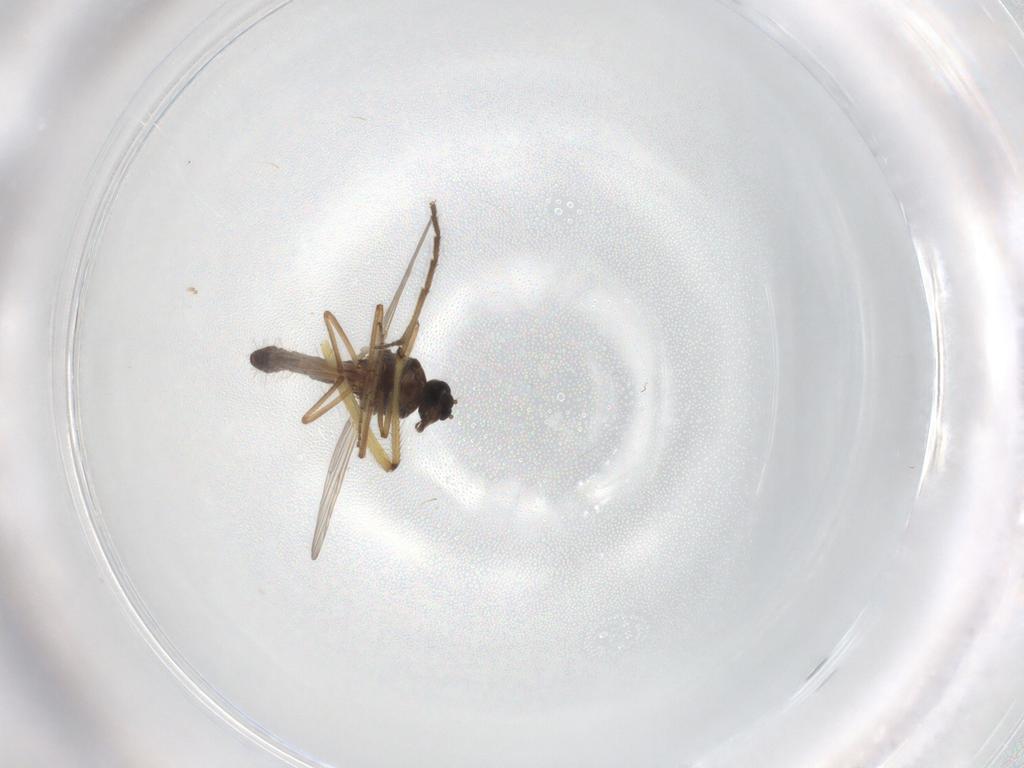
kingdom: Animalia
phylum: Arthropoda
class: Insecta
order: Diptera
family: Ceratopogonidae
